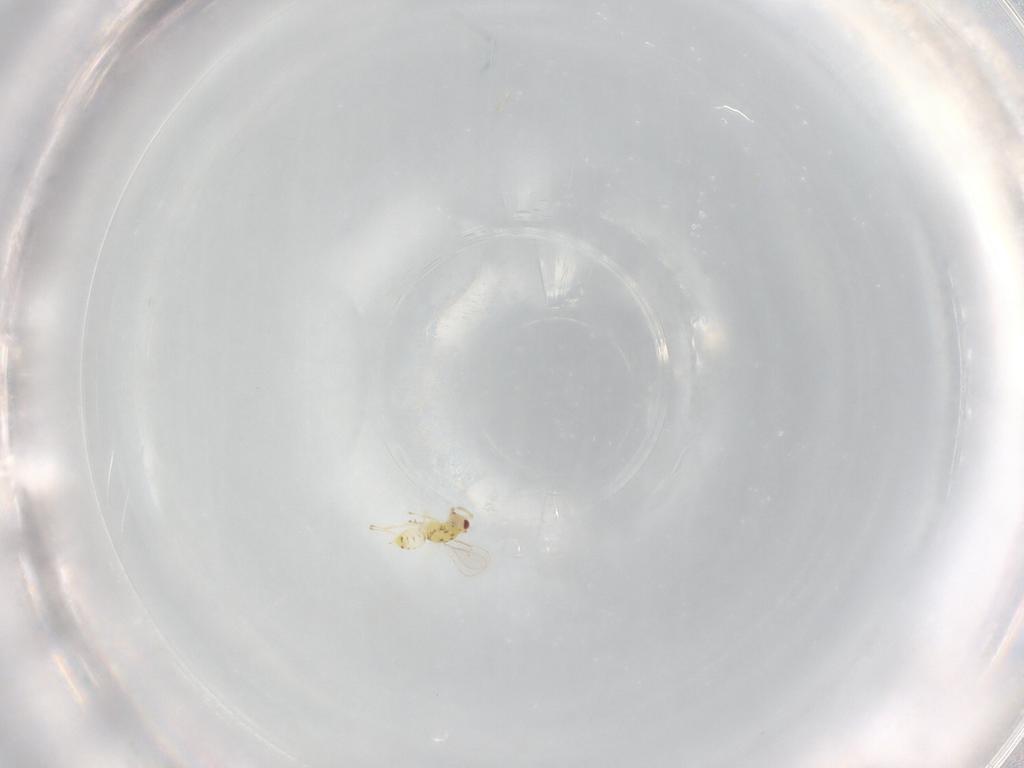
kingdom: Animalia
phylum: Arthropoda
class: Insecta
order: Hymenoptera
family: Eulophidae
